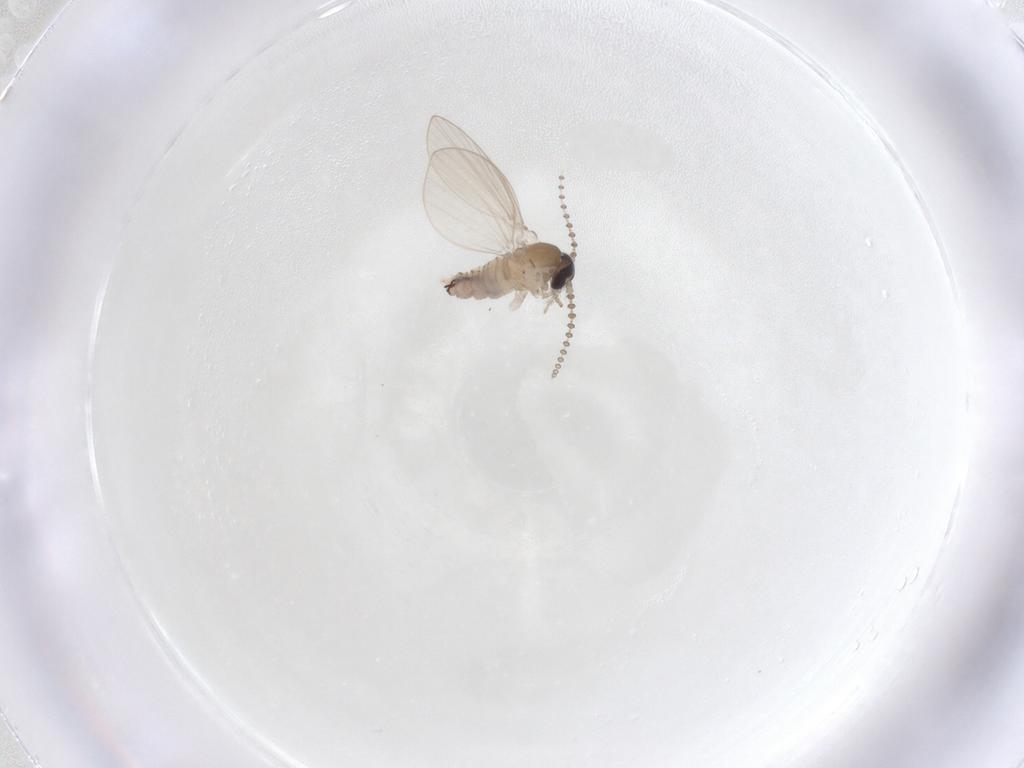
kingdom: Animalia
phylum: Arthropoda
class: Insecta
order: Diptera
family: Psychodidae
